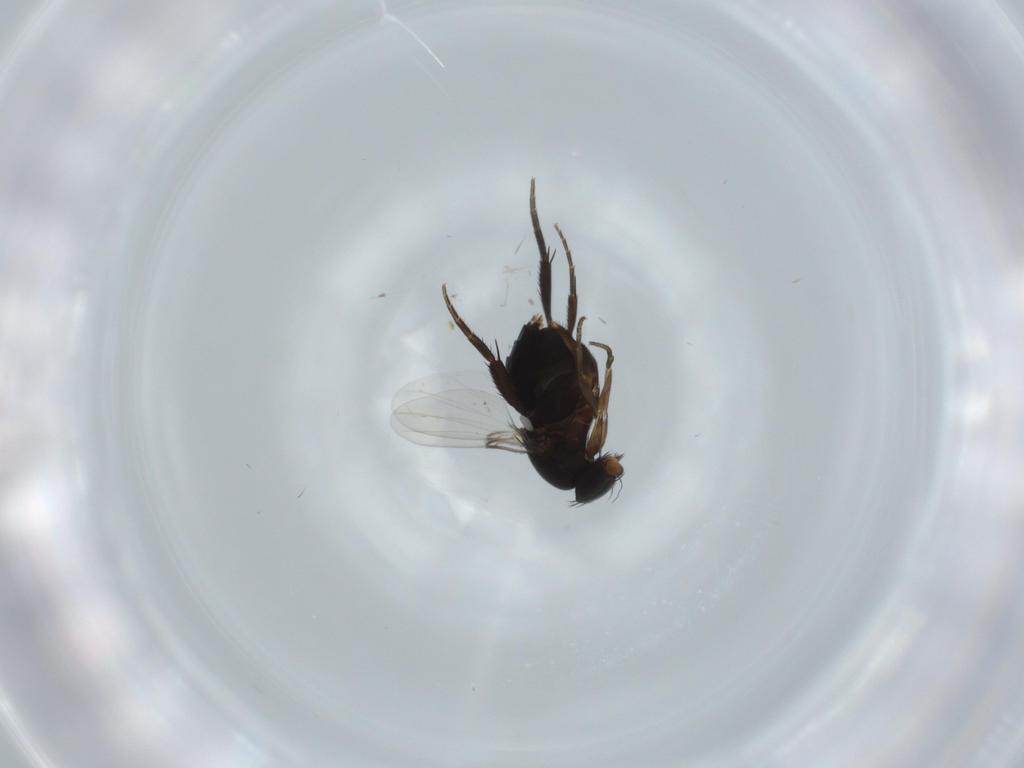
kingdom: Animalia
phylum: Arthropoda
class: Insecta
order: Diptera
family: Phoridae
